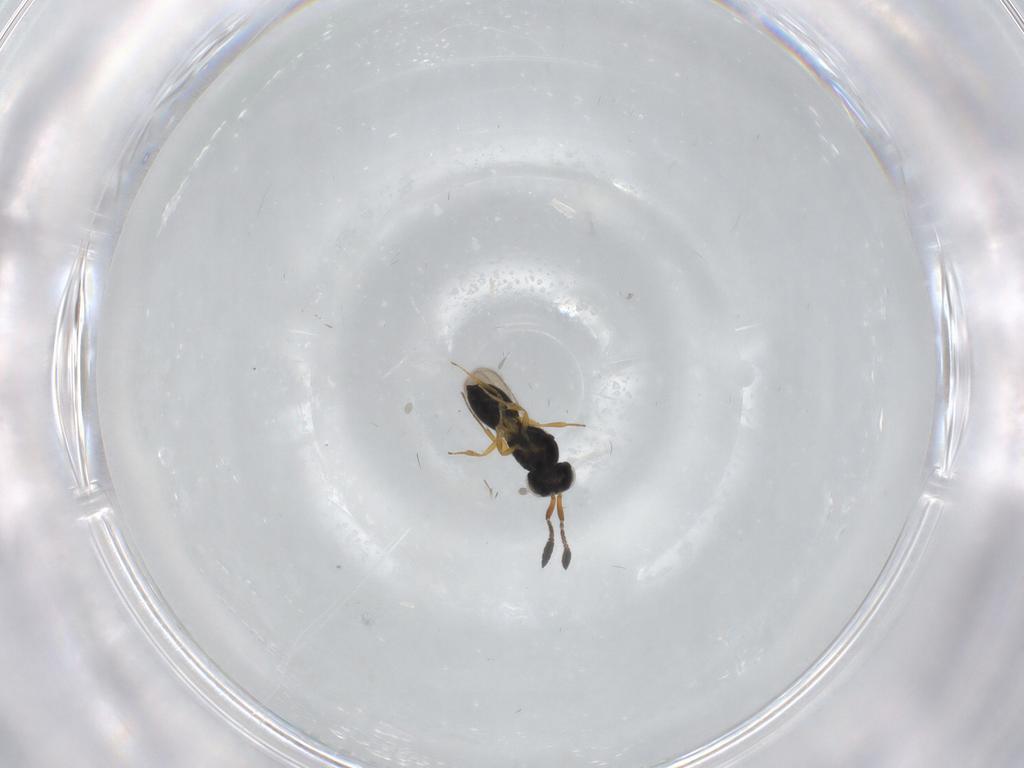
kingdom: Animalia
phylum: Arthropoda
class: Insecta
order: Hymenoptera
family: Scelionidae
